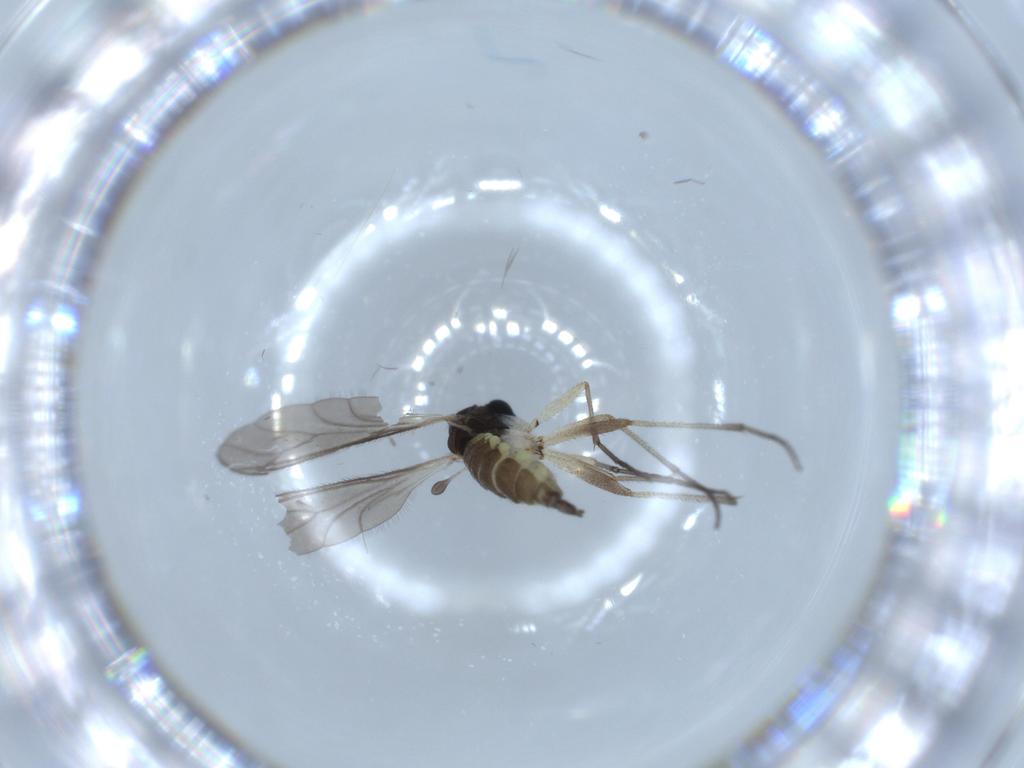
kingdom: Animalia
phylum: Arthropoda
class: Insecta
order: Diptera
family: Sciaridae
